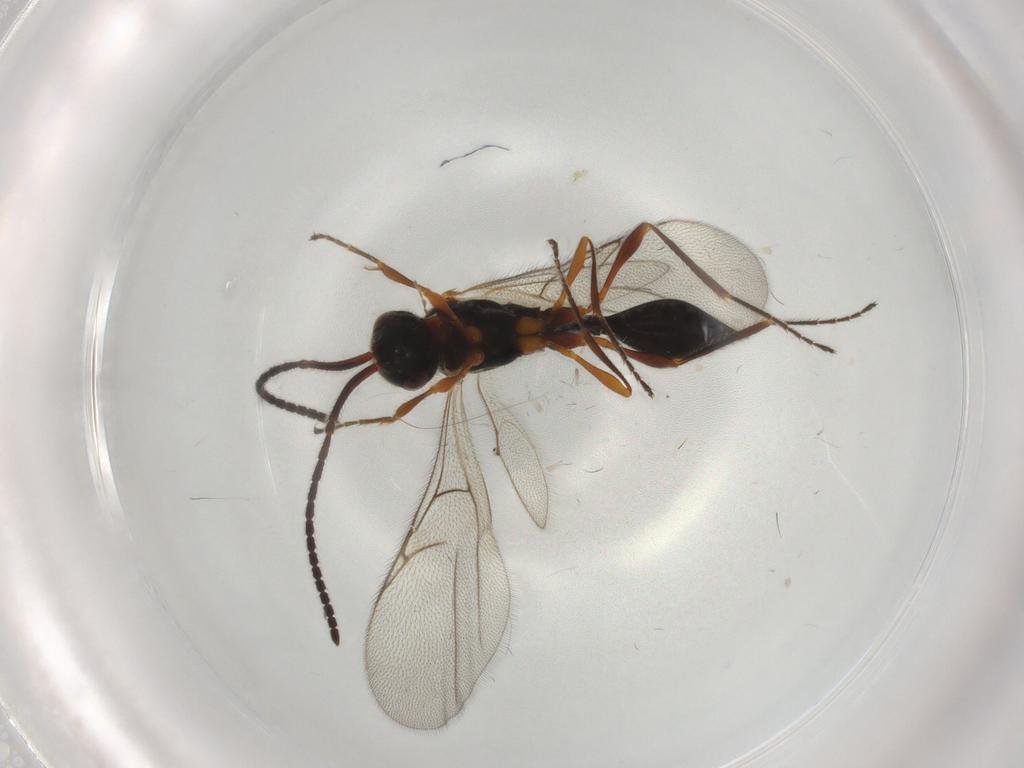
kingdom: Animalia
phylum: Arthropoda
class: Insecta
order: Hymenoptera
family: Diapriidae
